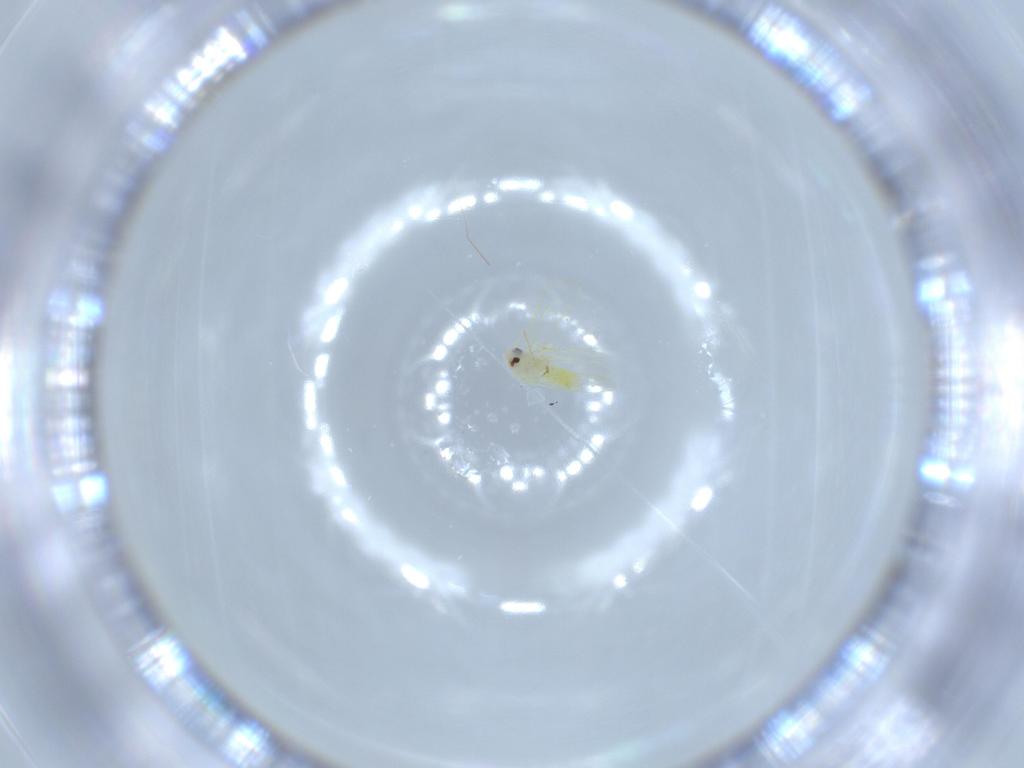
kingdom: Animalia
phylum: Arthropoda
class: Insecta
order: Hemiptera
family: Aleyrodidae
